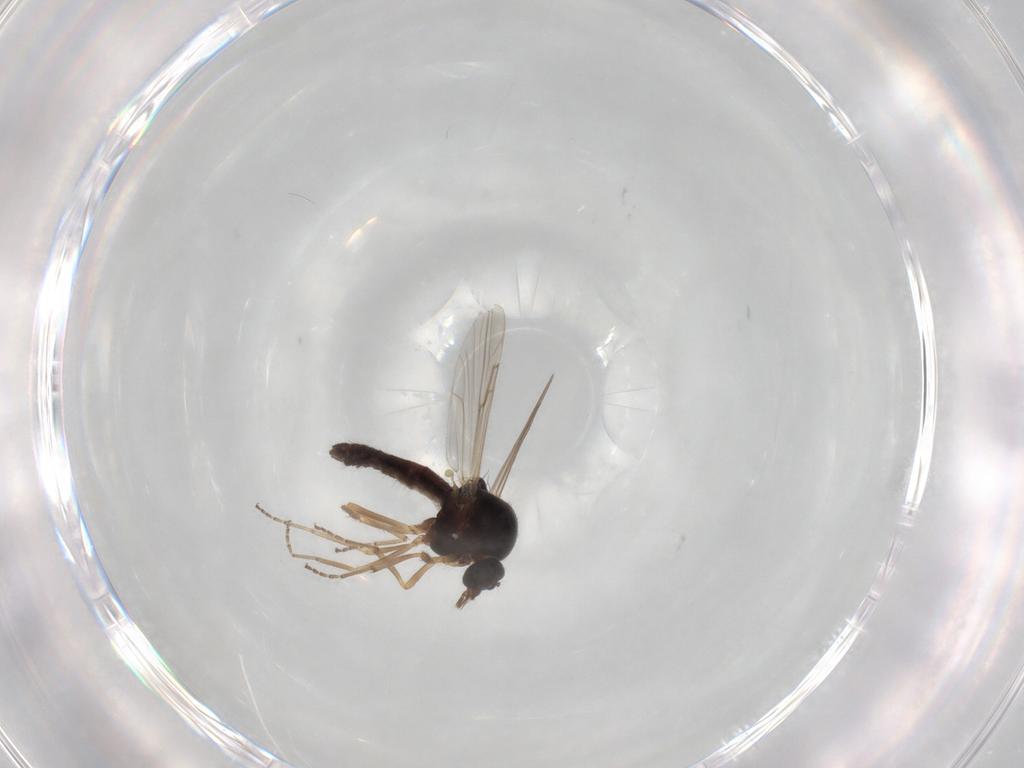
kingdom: Animalia
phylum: Arthropoda
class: Insecta
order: Diptera
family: Ceratopogonidae
